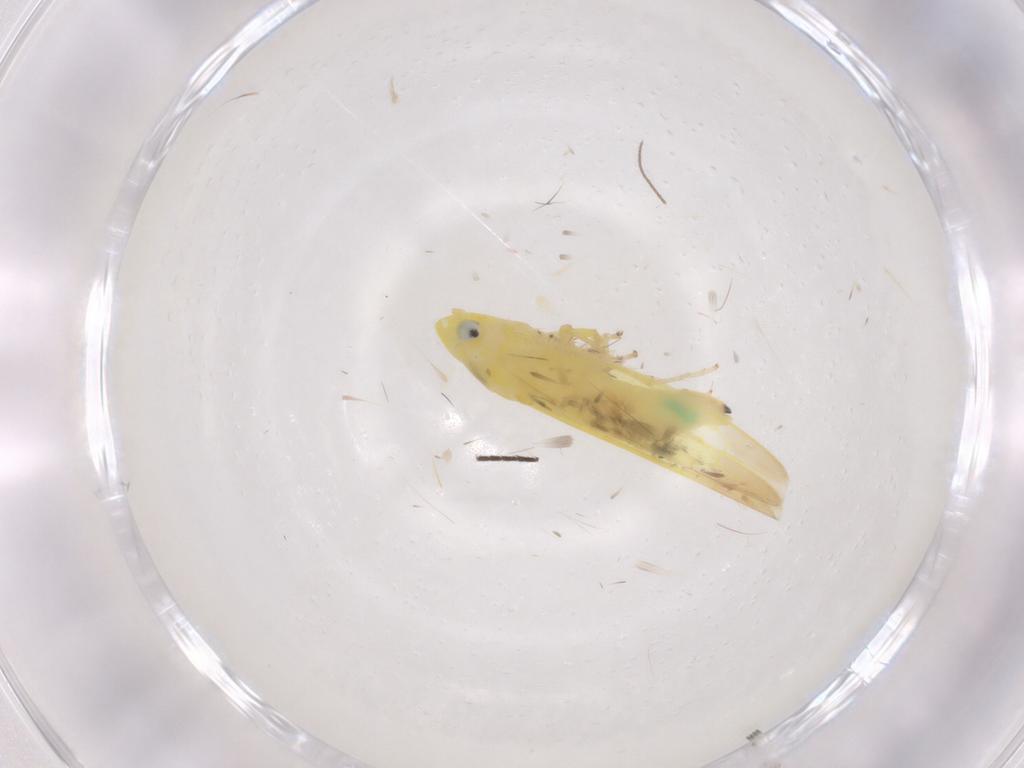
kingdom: Animalia
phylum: Arthropoda
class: Insecta
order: Hemiptera
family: Cicadellidae
